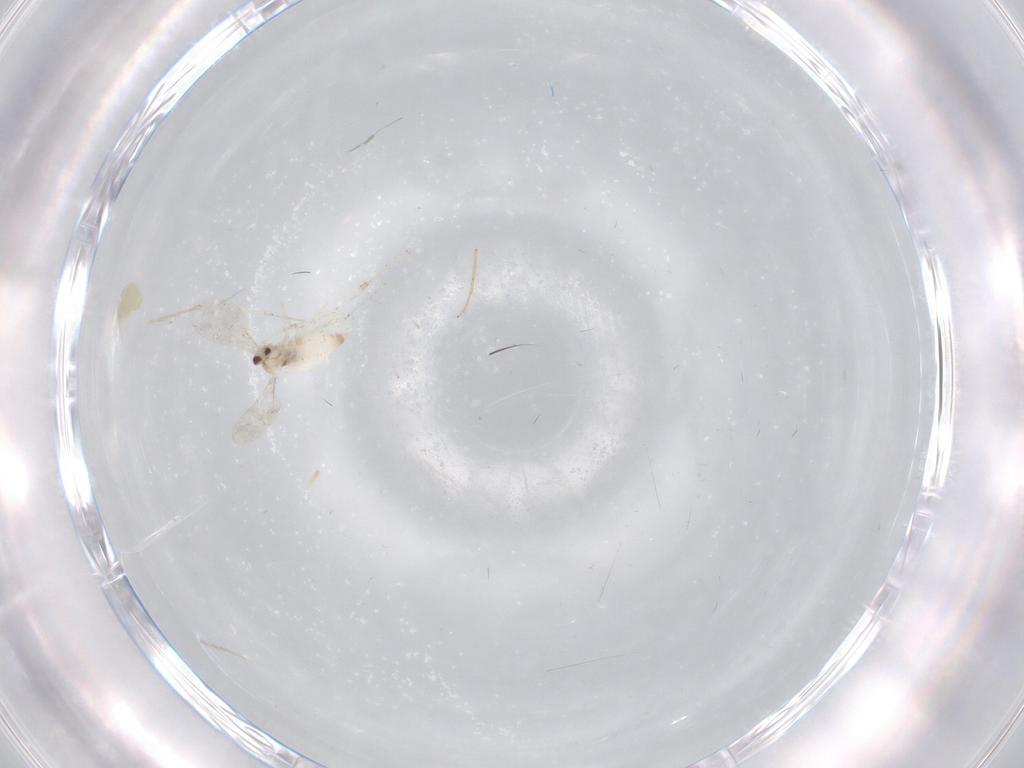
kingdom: Animalia
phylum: Arthropoda
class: Insecta
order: Diptera
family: Cecidomyiidae
